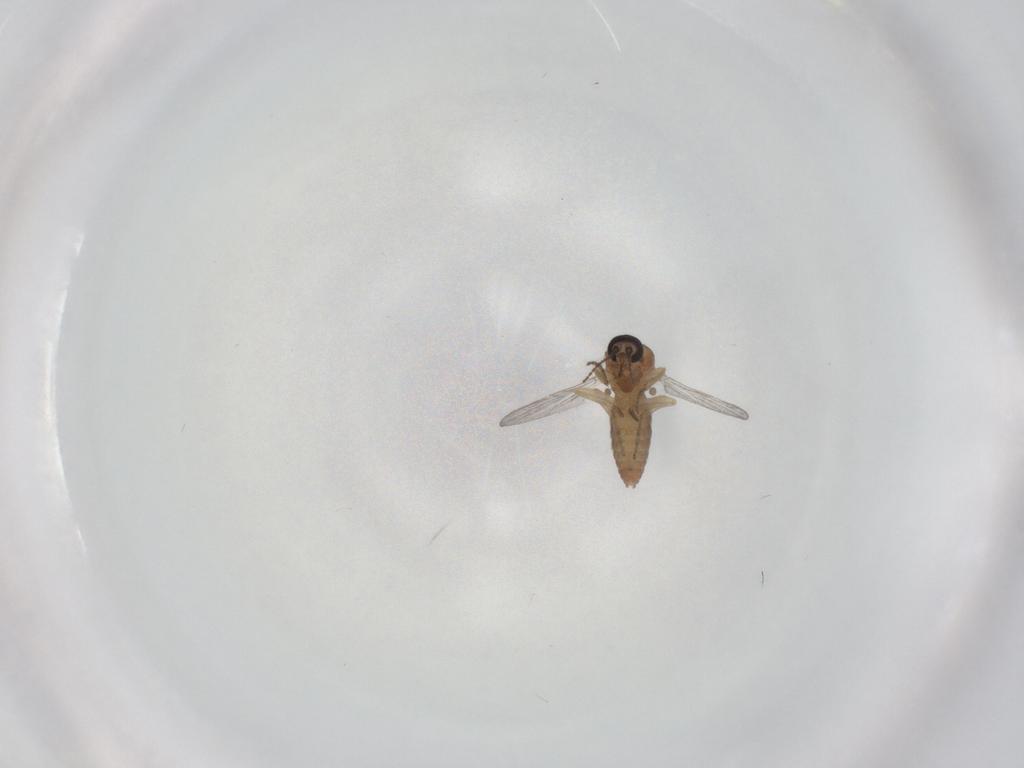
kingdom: Animalia
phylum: Arthropoda
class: Insecta
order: Diptera
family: Ceratopogonidae
